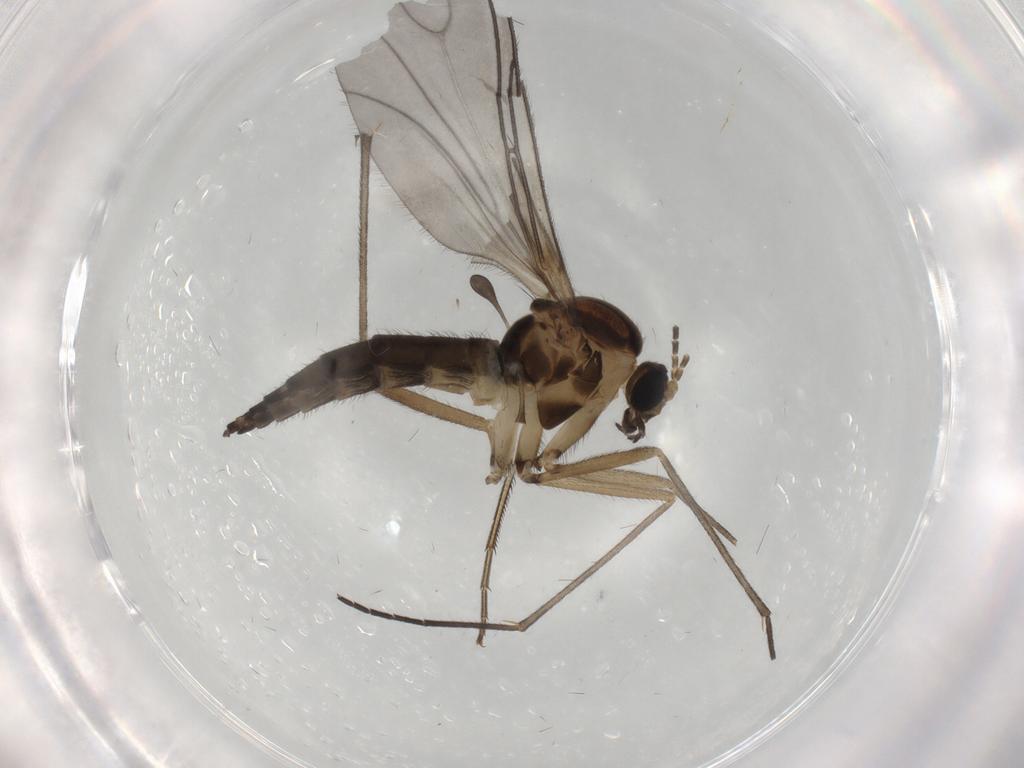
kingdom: Animalia
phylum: Arthropoda
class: Insecta
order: Diptera
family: Sciaridae
